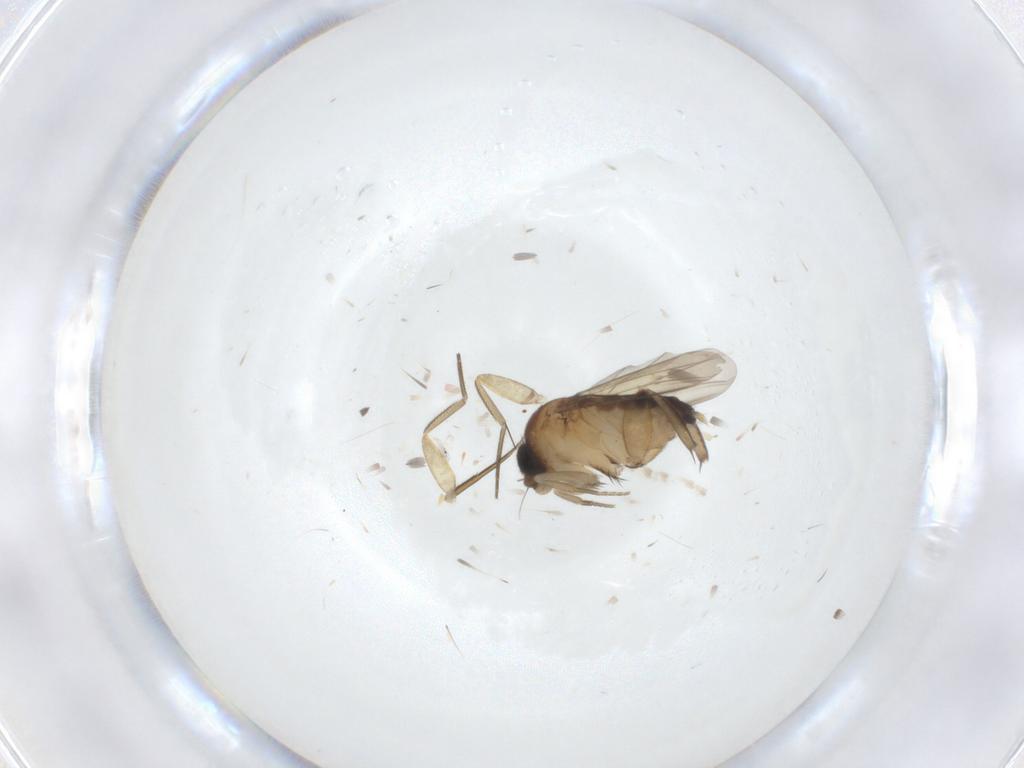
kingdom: Animalia
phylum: Arthropoda
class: Insecta
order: Diptera
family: Phoridae
